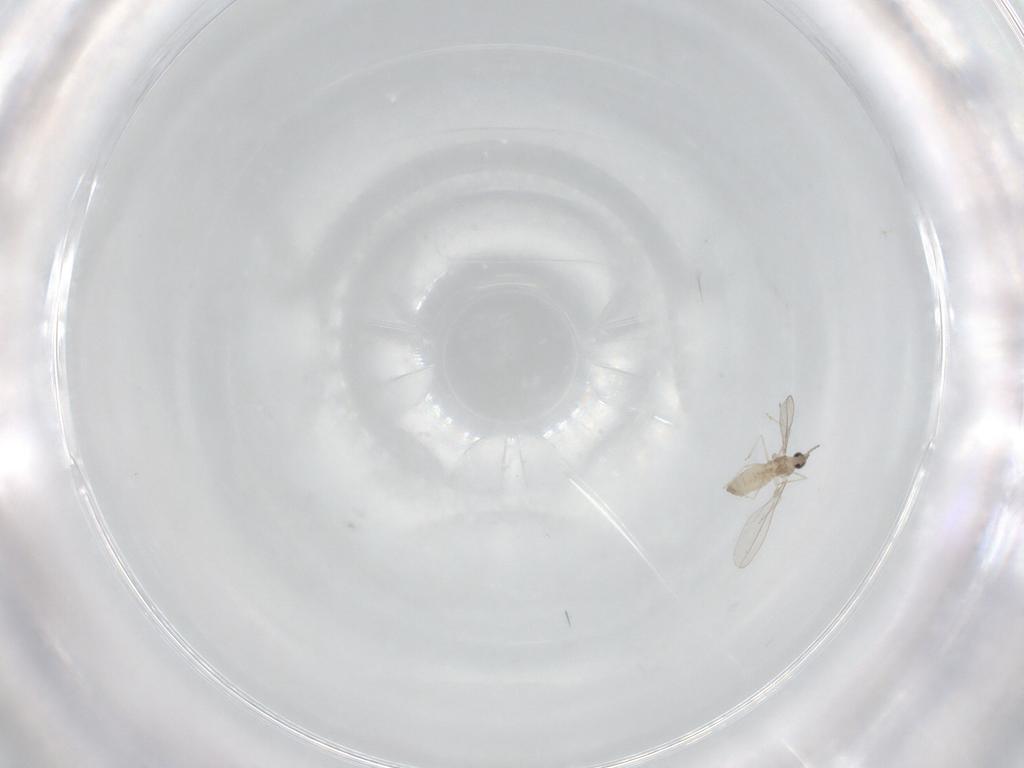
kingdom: Animalia
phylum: Arthropoda
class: Insecta
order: Diptera
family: Cecidomyiidae
